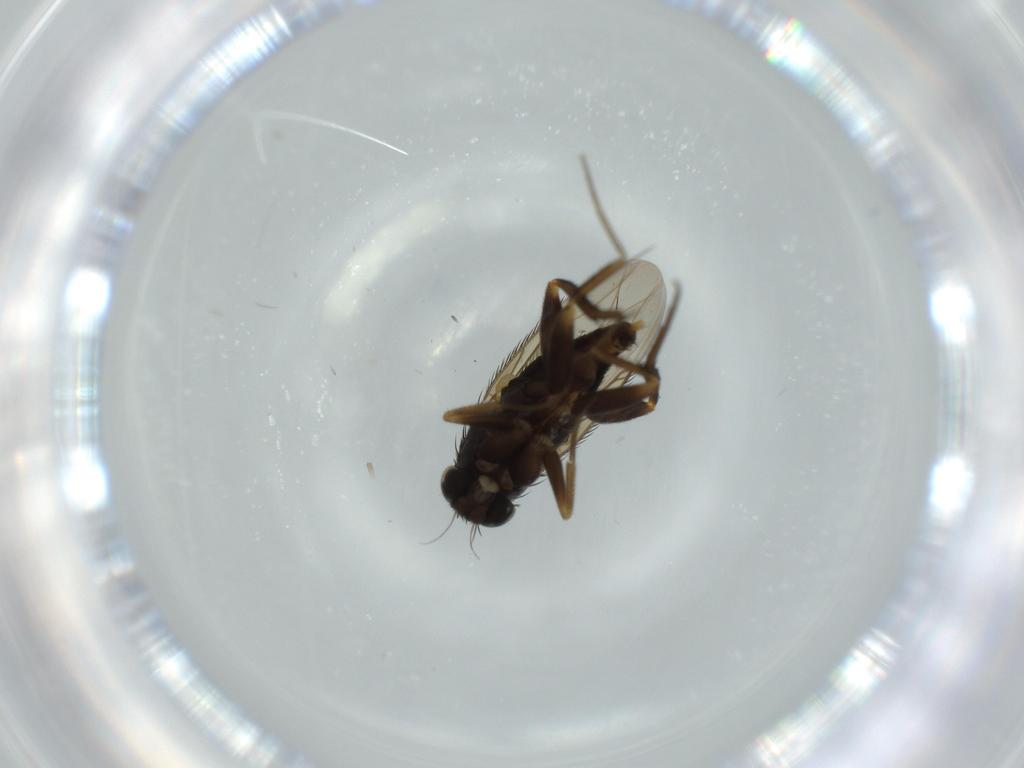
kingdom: Animalia
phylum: Arthropoda
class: Insecta
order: Diptera
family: Phoridae
